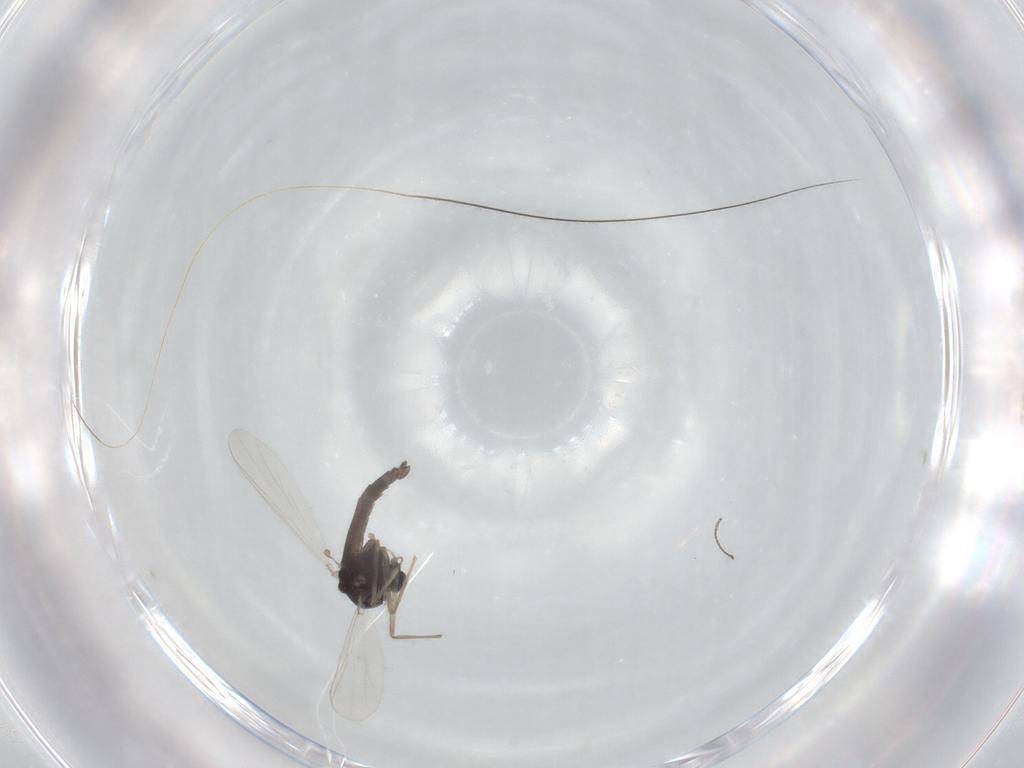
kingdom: Animalia
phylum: Arthropoda
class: Insecta
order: Diptera
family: Chironomidae
